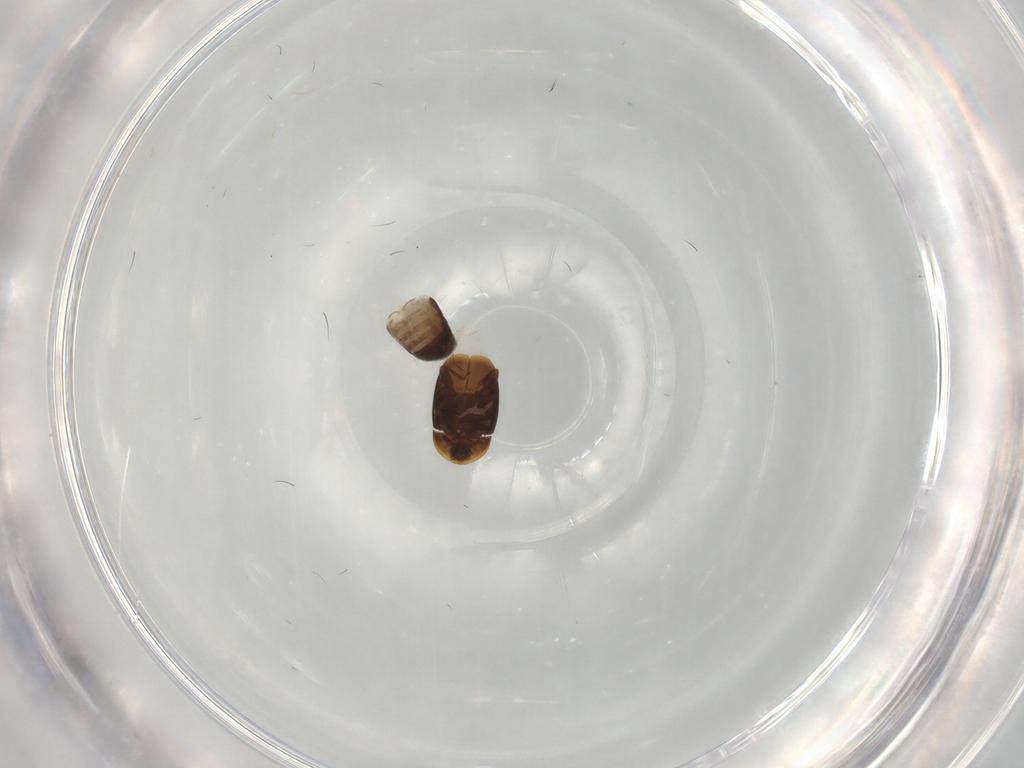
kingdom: Animalia
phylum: Arthropoda
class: Insecta
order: Coleoptera
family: Corylophidae
